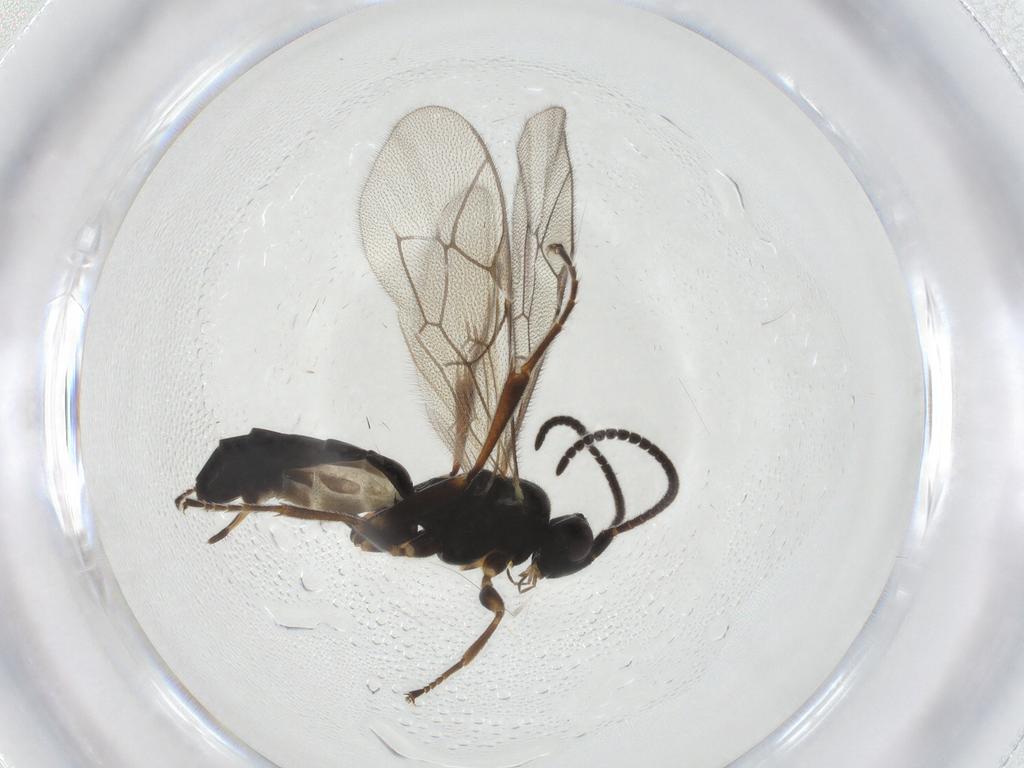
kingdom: Animalia
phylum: Arthropoda
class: Insecta
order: Hymenoptera
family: Ichneumonidae
